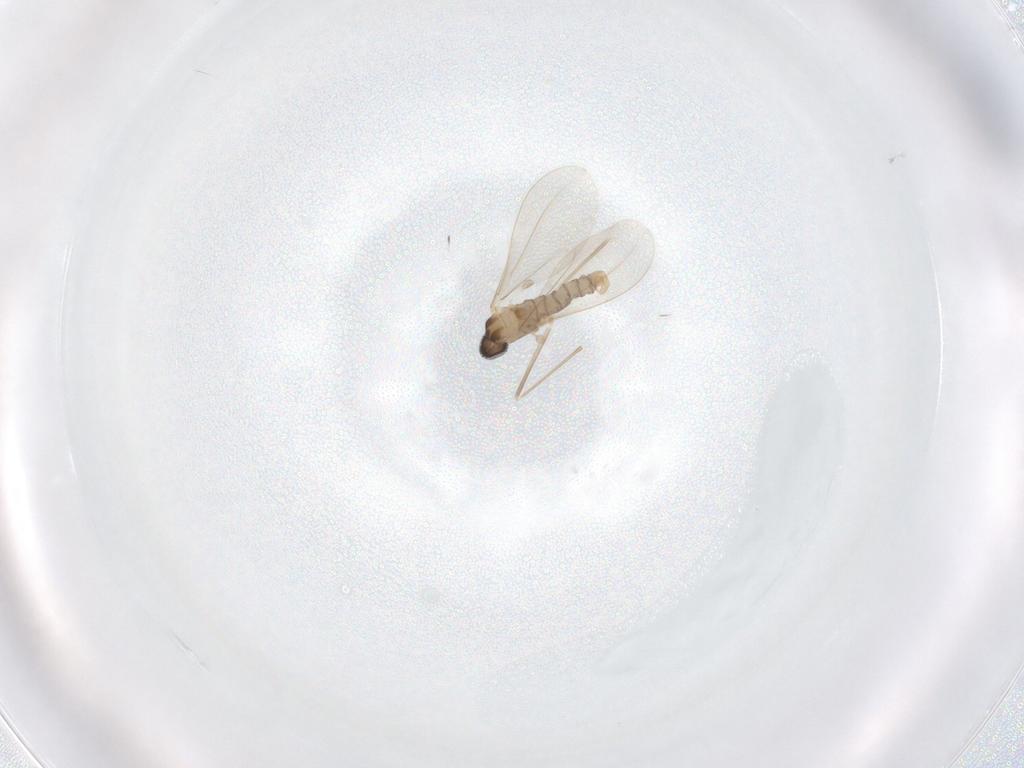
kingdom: Animalia
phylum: Arthropoda
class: Insecta
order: Diptera
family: Cecidomyiidae
